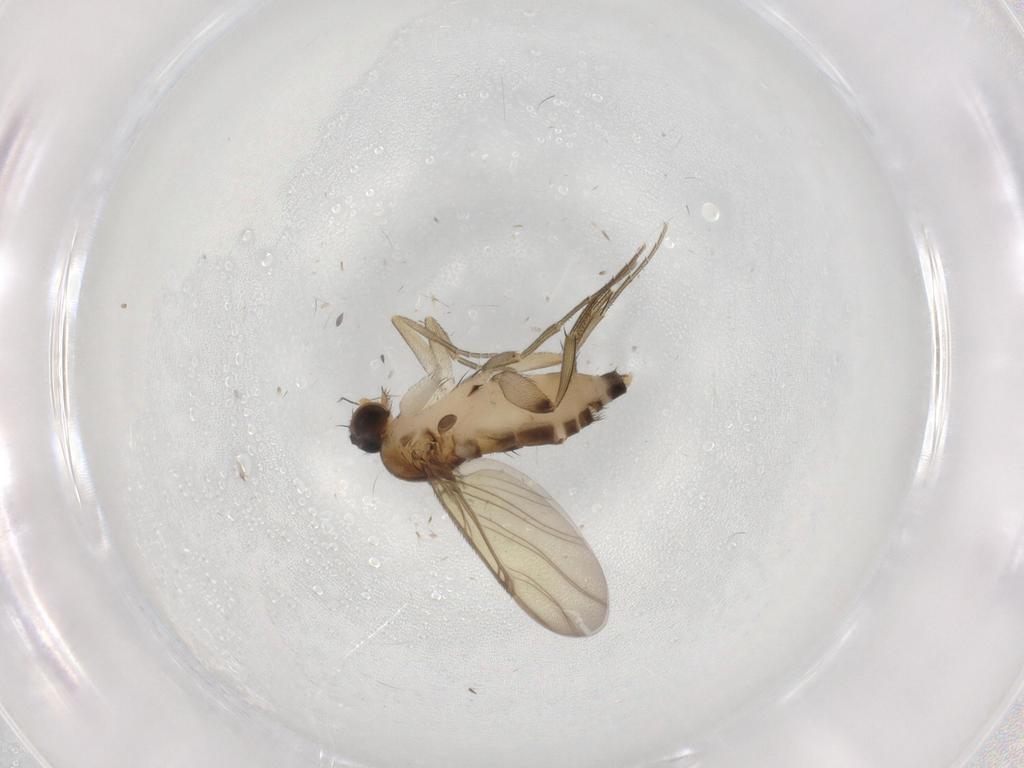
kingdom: Animalia
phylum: Arthropoda
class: Insecta
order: Diptera
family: Phoridae
